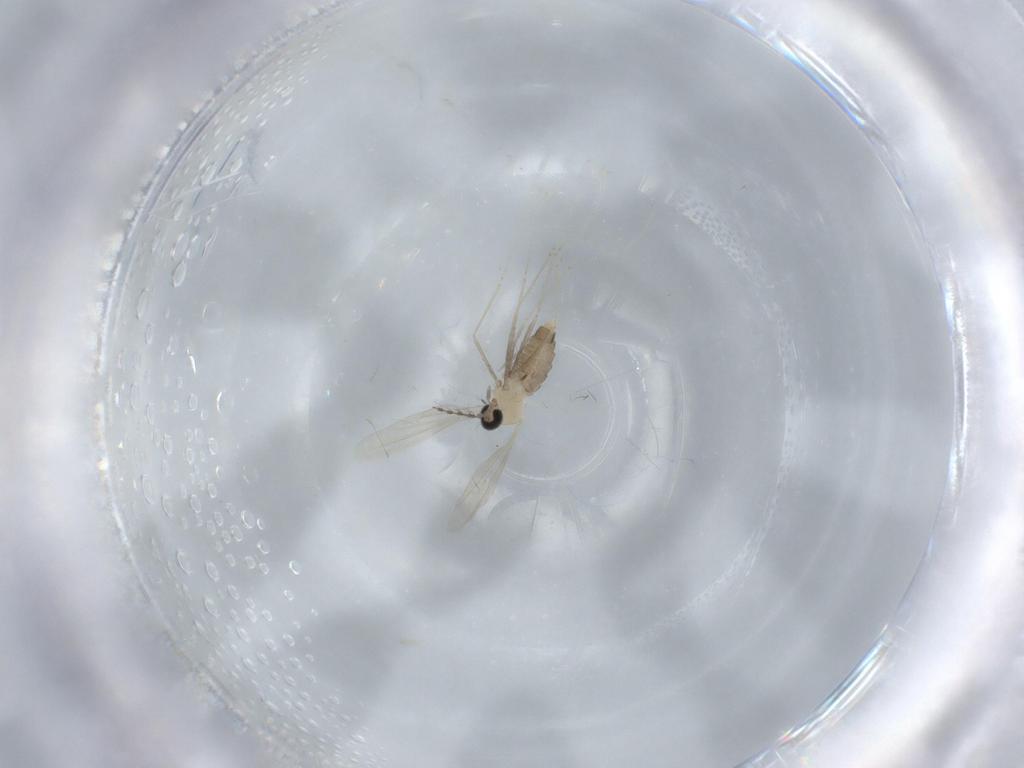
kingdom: Animalia
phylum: Arthropoda
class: Insecta
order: Diptera
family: Cecidomyiidae
